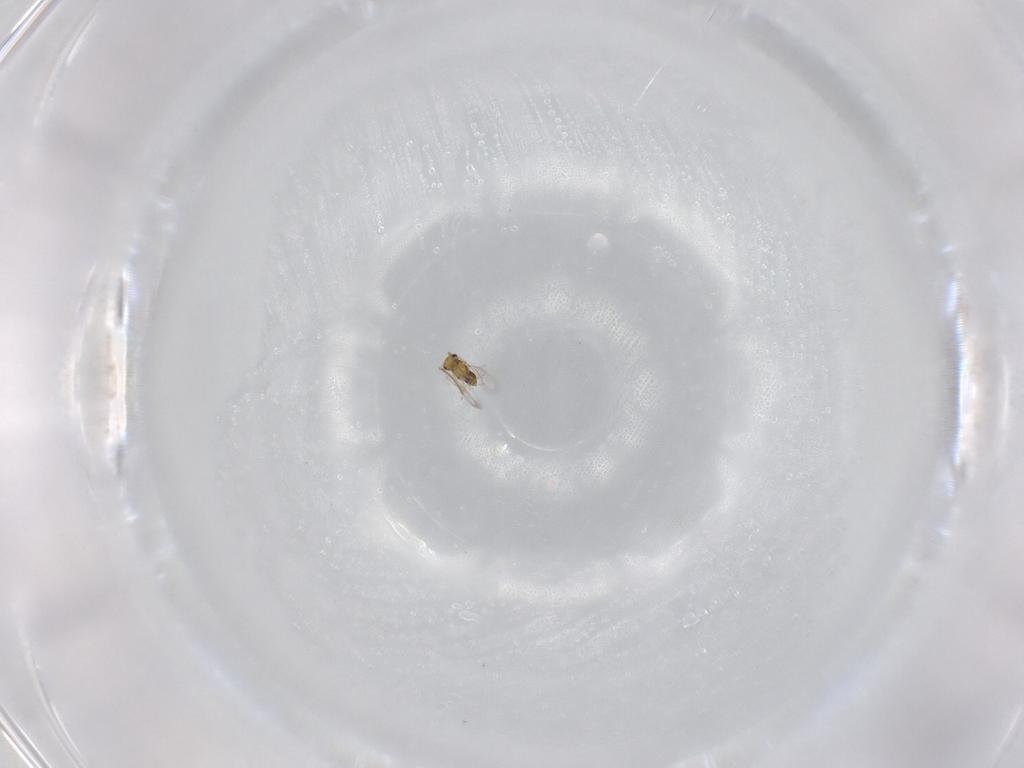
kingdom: Animalia
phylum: Arthropoda
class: Insecta
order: Hymenoptera
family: Aphelinidae
